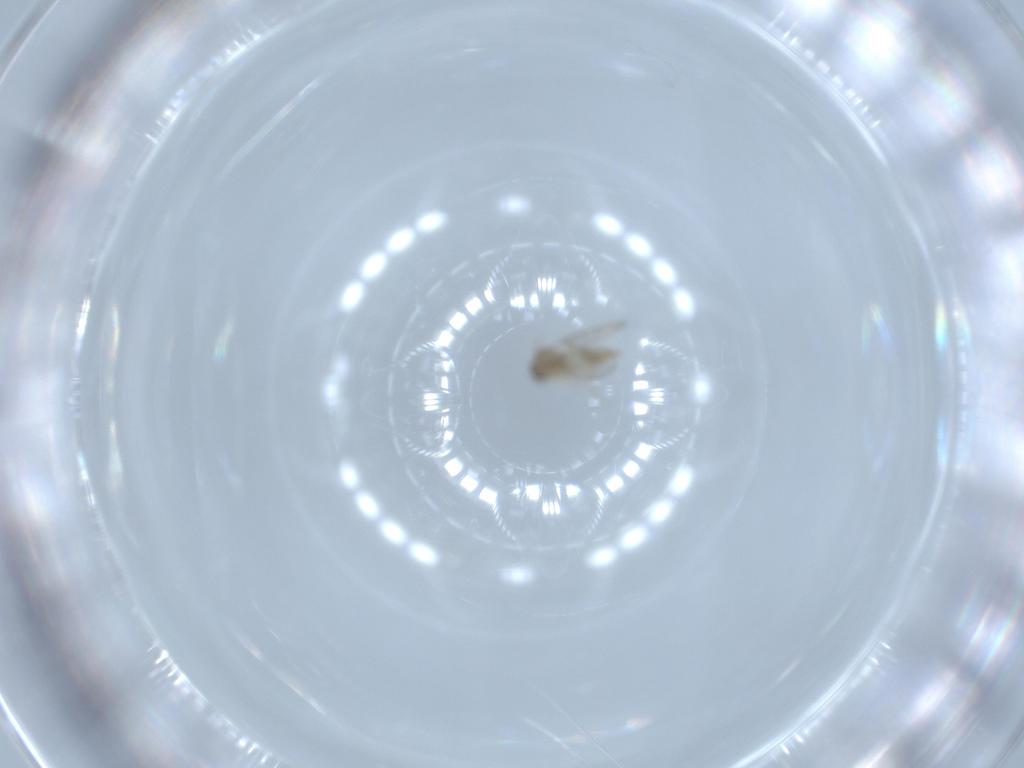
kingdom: Animalia
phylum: Arthropoda
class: Insecta
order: Diptera
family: Cecidomyiidae
